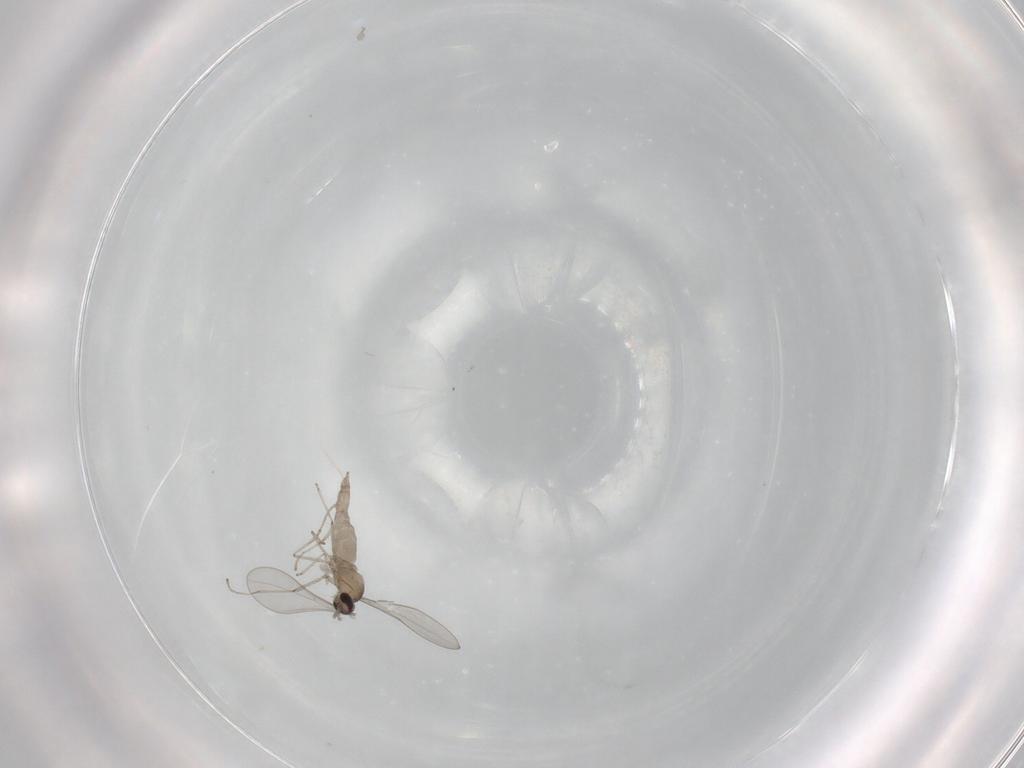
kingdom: Animalia
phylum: Arthropoda
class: Insecta
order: Diptera
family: Cecidomyiidae
